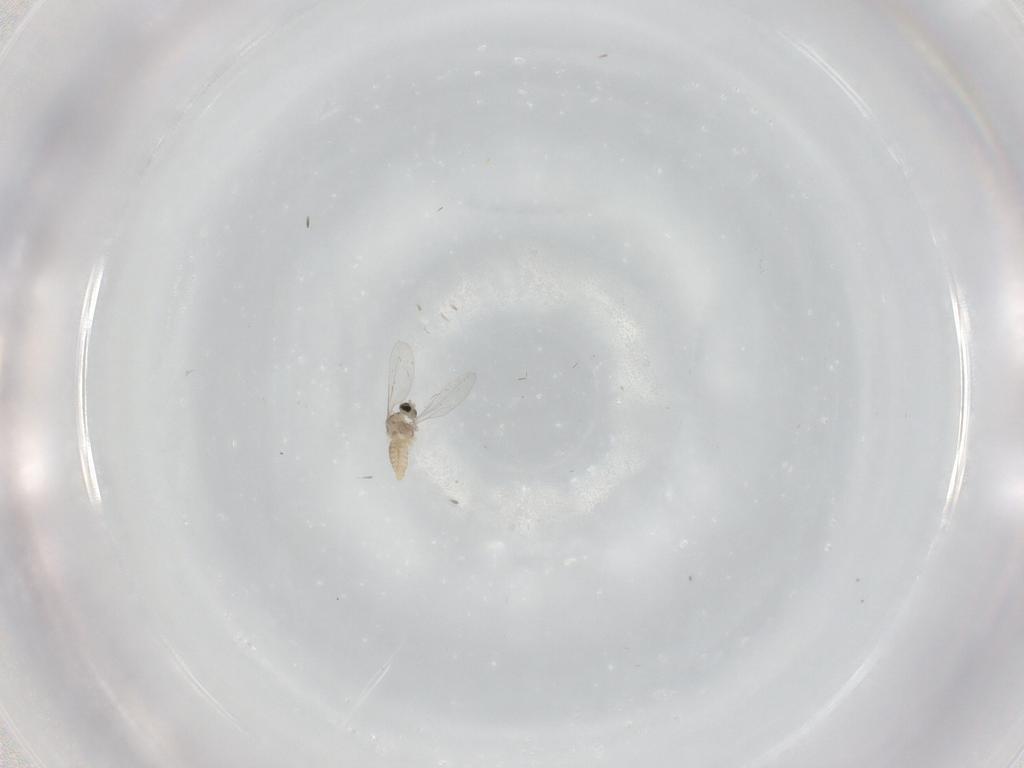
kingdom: Animalia
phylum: Arthropoda
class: Insecta
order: Diptera
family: Cecidomyiidae
